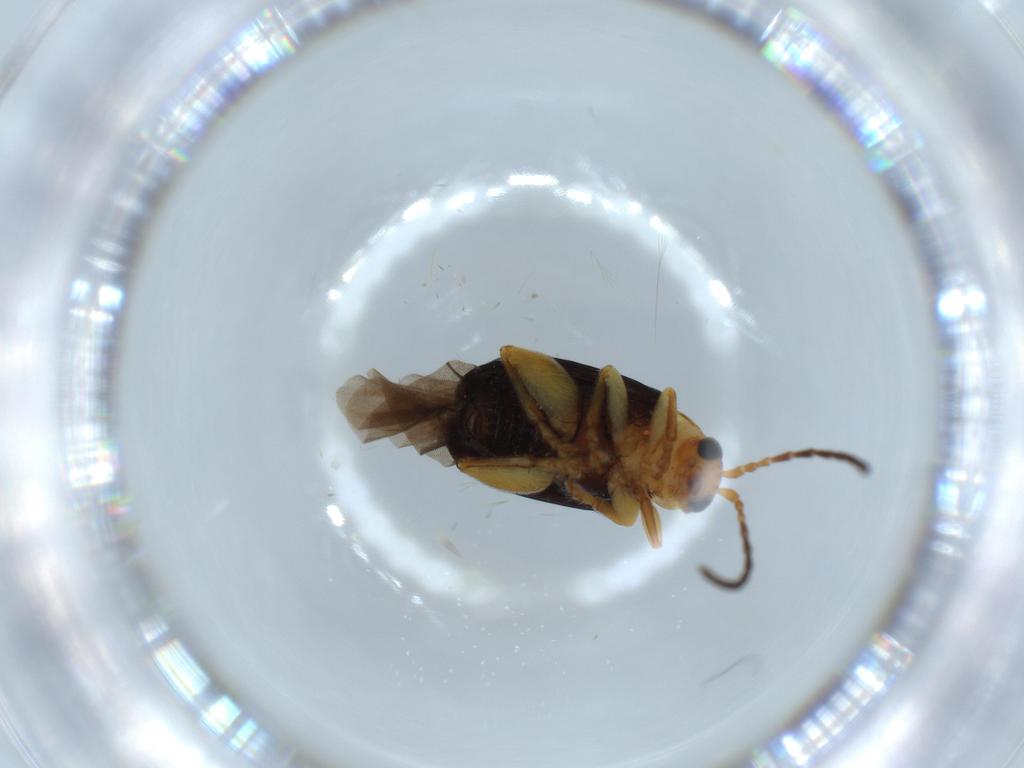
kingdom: Animalia
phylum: Arthropoda
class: Insecta
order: Coleoptera
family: Chrysomelidae
